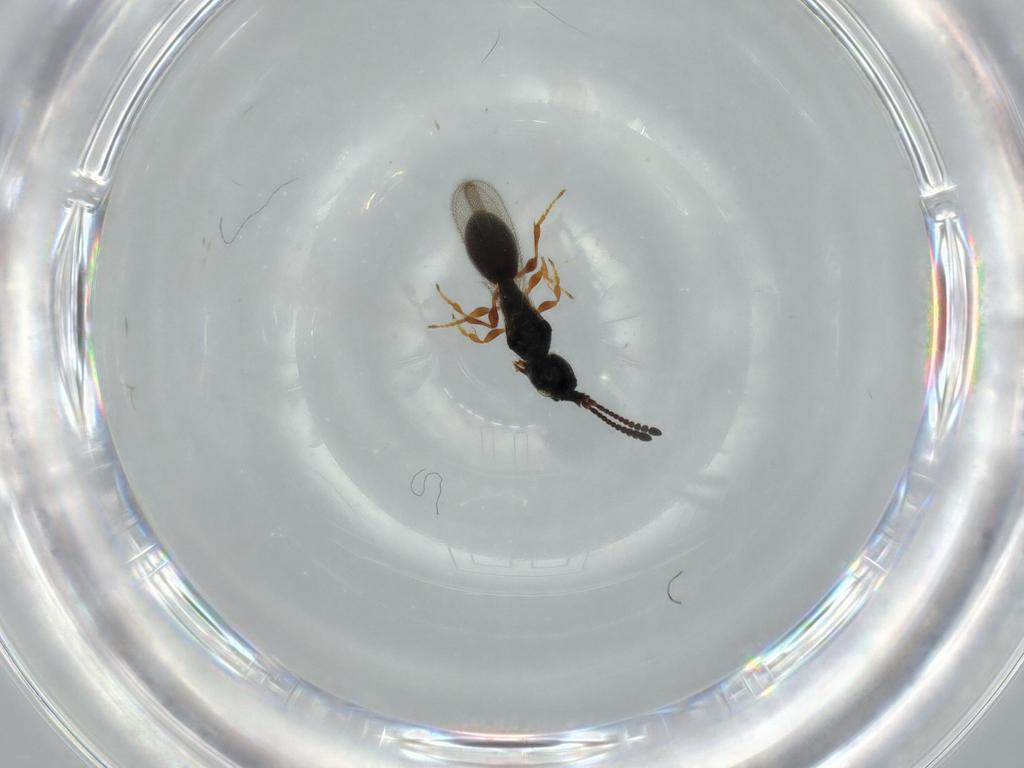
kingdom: Animalia
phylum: Arthropoda
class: Insecta
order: Hymenoptera
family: Diapriidae
